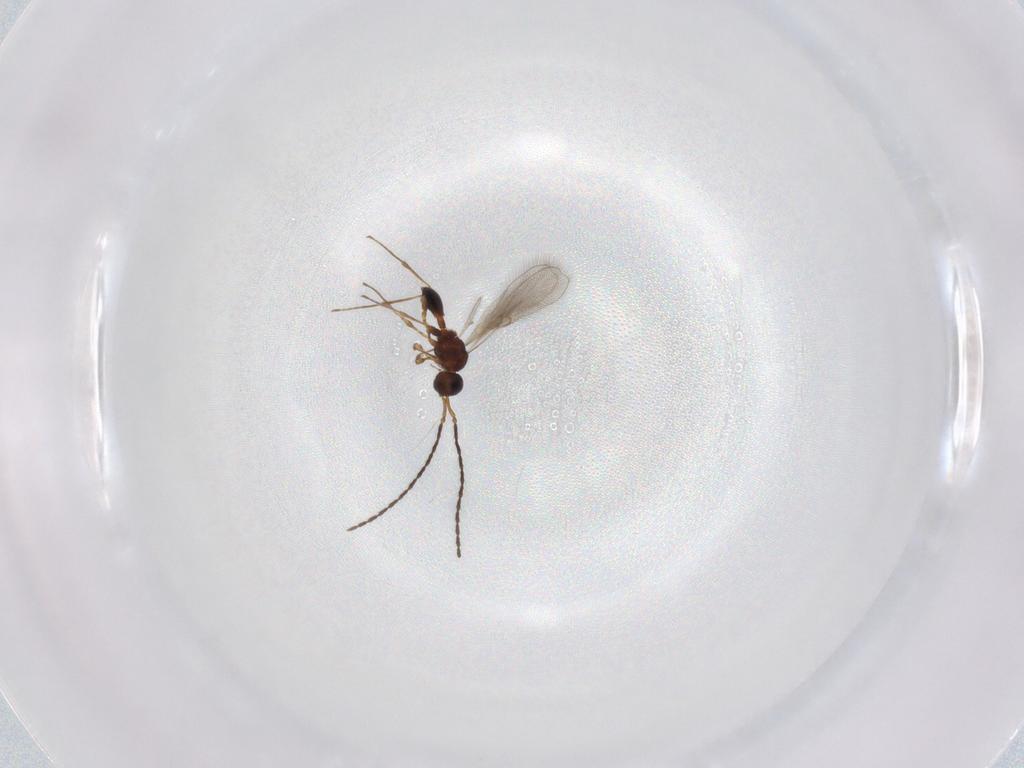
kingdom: Animalia
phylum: Arthropoda
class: Insecta
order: Hymenoptera
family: Diapriidae
